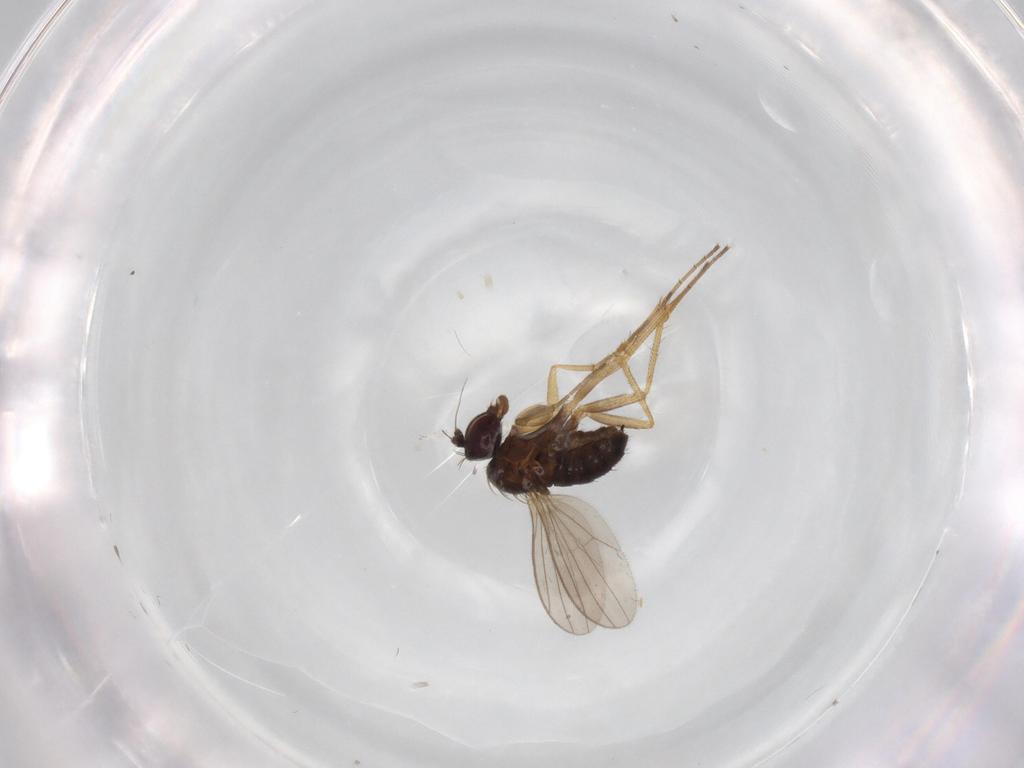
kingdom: Animalia
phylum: Arthropoda
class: Insecta
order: Diptera
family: Dolichopodidae
